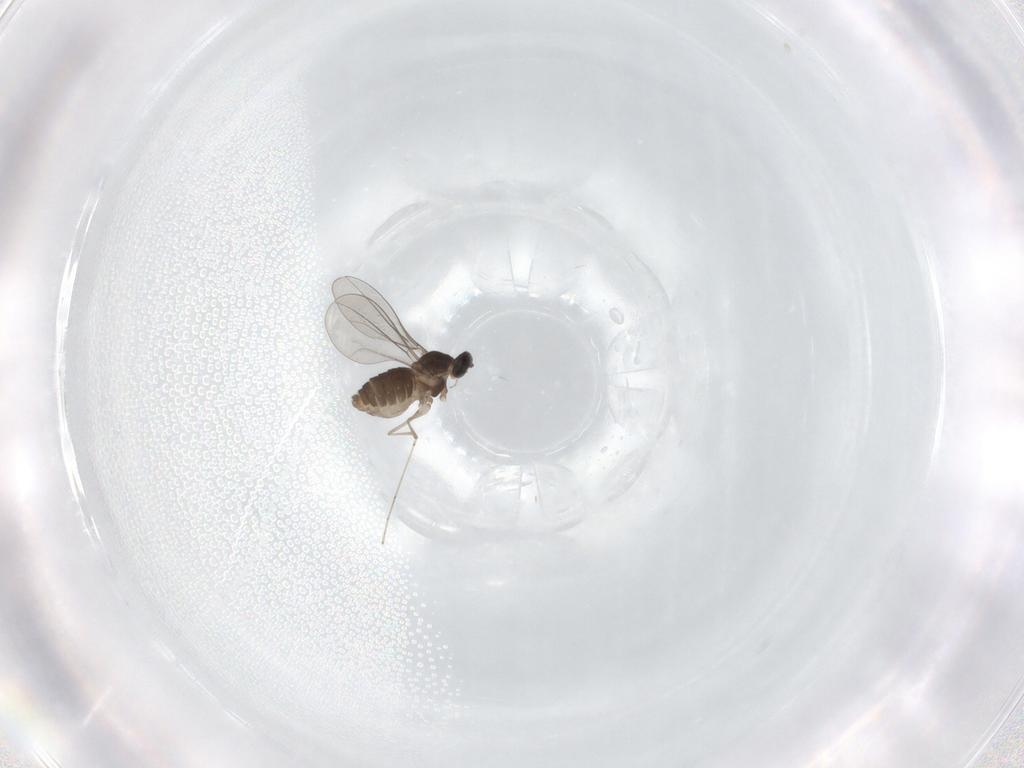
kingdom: Animalia
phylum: Arthropoda
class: Insecta
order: Diptera
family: Cecidomyiidae
